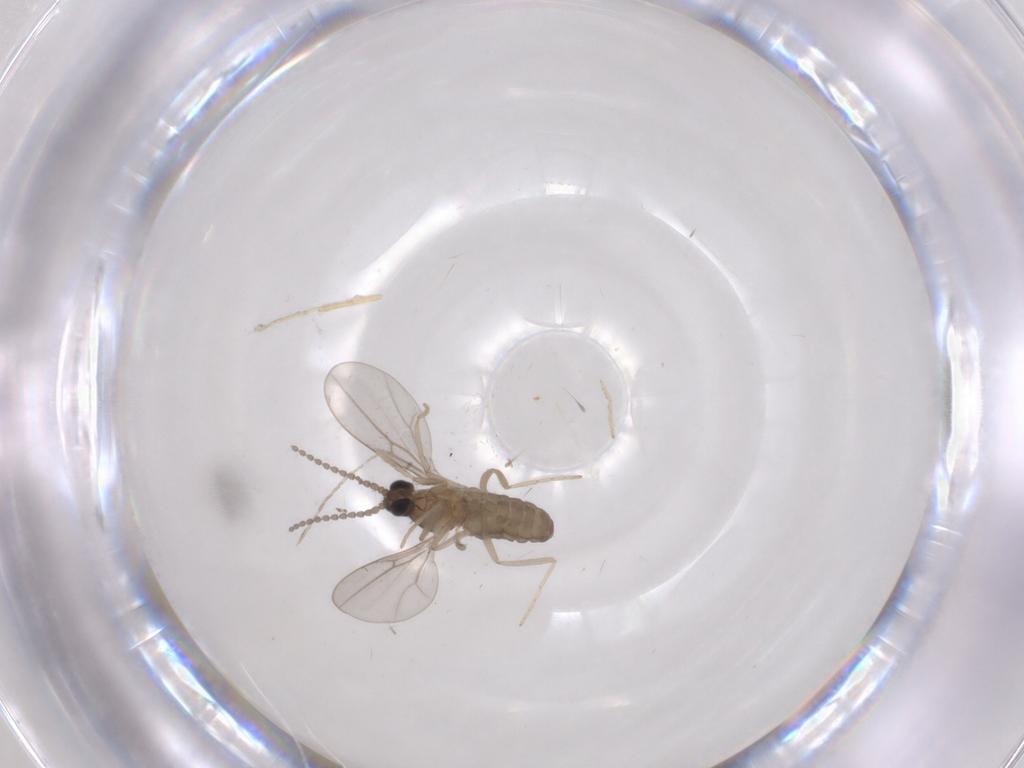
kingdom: Animalia
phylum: Arthropoda
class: Insecta
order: Diptera
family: Cecidomyiidae
